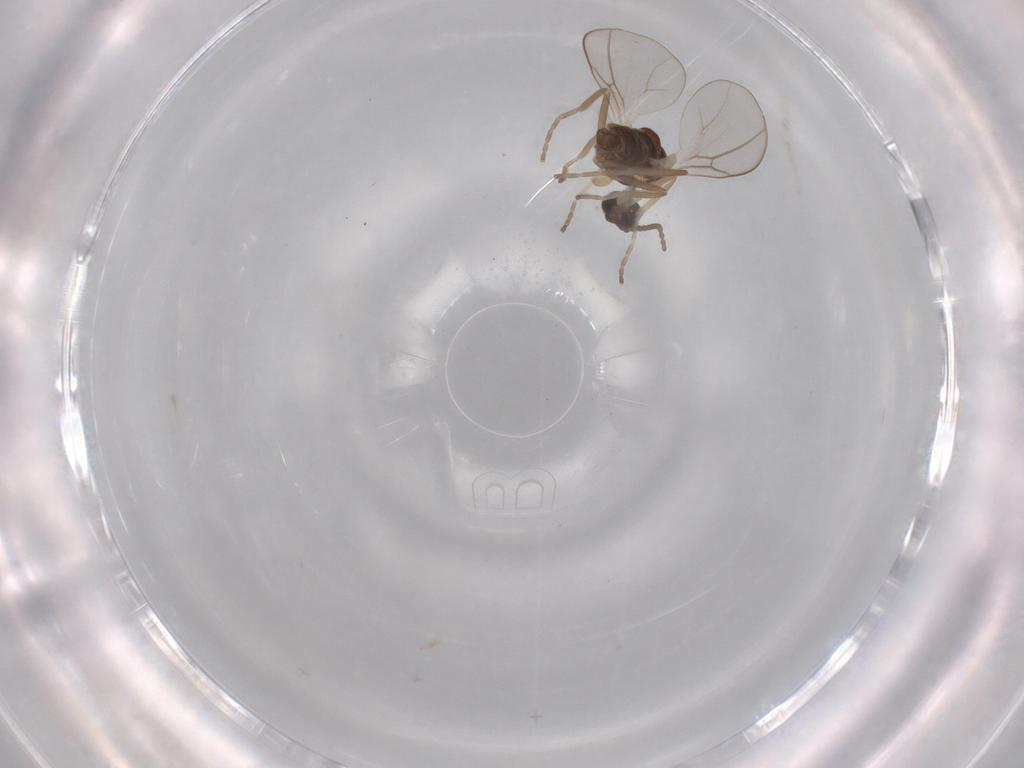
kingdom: Animalia
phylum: Arthropoda
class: Insecta
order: Diptera
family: Cecidomyiidae
